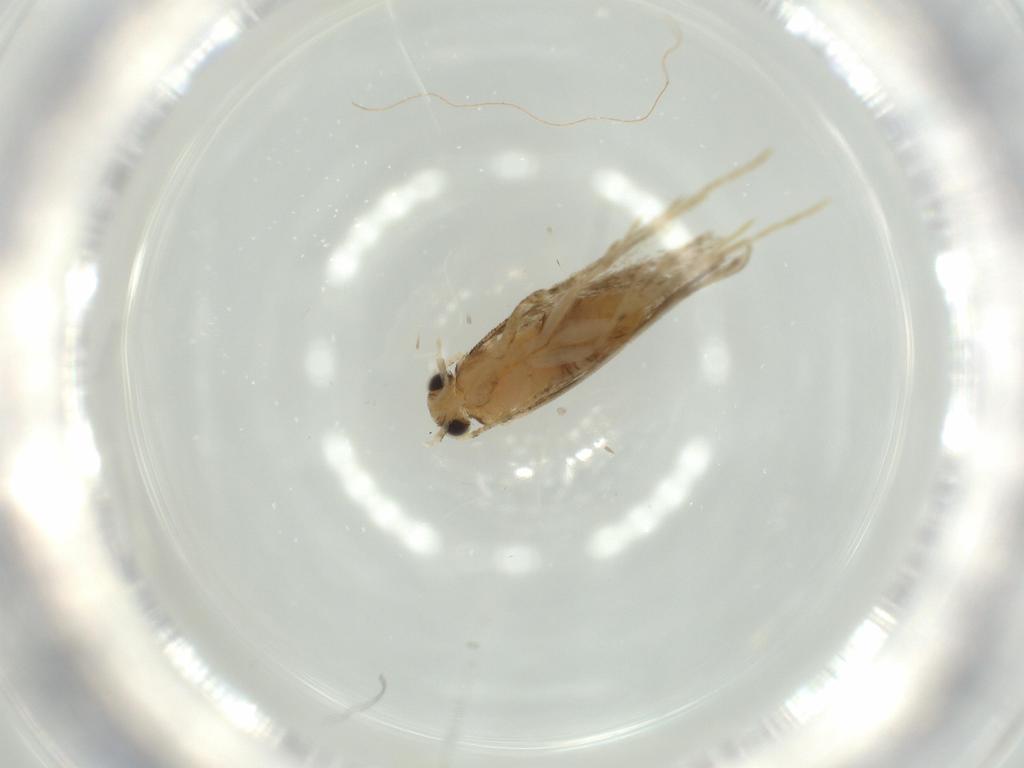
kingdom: Animalia
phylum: Arthropoda
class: Insecta
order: Lepidoptera
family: Tineidae
